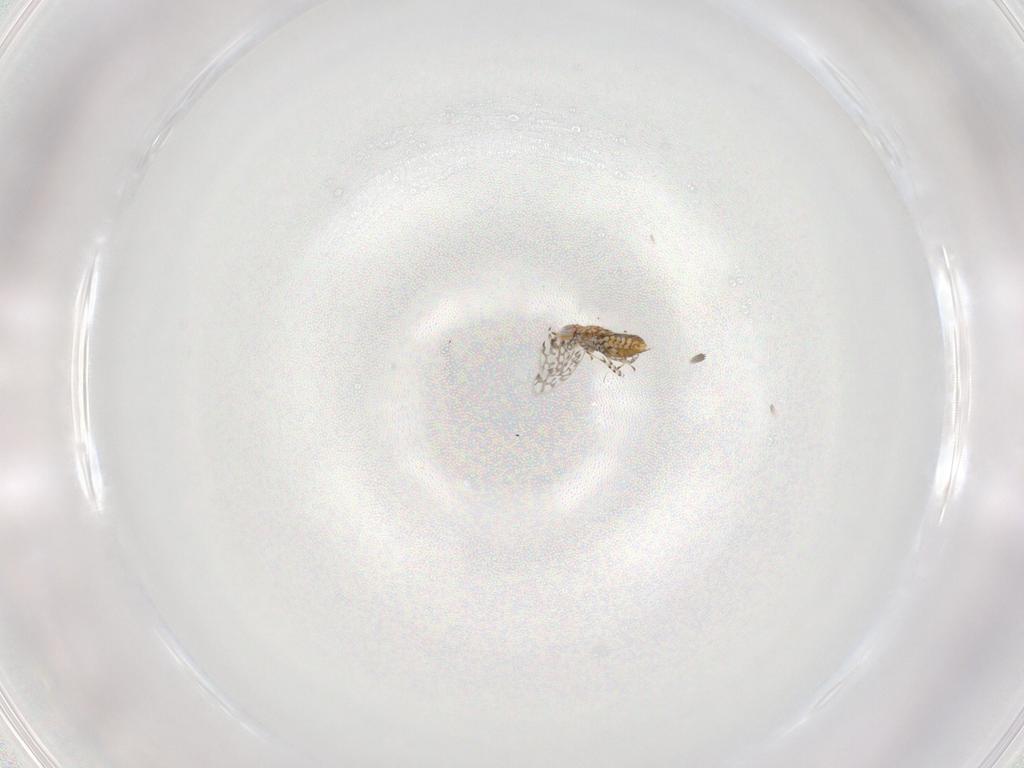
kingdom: Animalia
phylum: Arthropoda
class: Insecta
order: Hymenoptera
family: Aphelinidae
